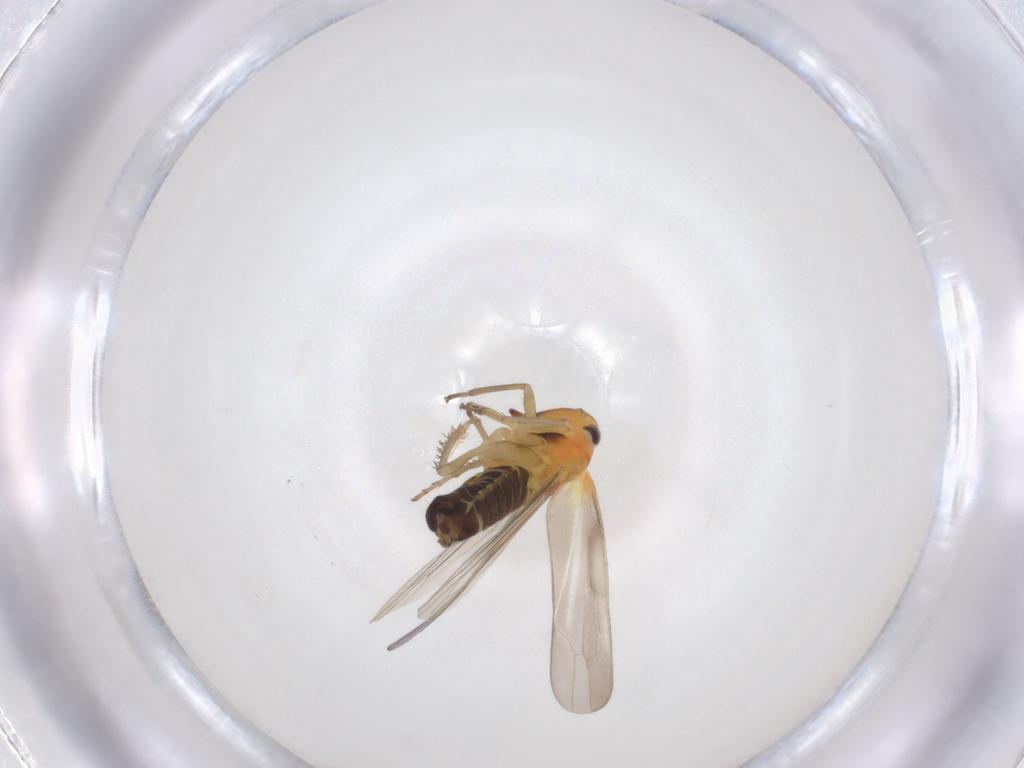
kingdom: Animalia
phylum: Arthropoda
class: Insecta
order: Hemiptera
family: Cicadellidae
